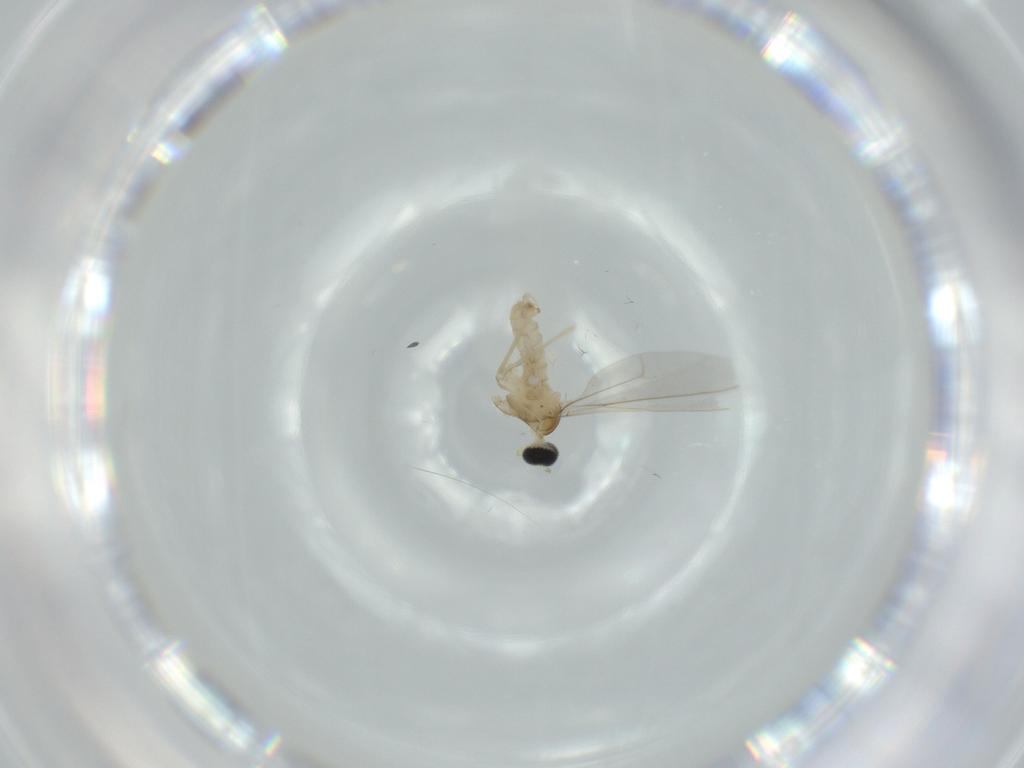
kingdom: Animalia
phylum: Arthropoda
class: Insecta
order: Diptera
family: Cecidomyiidae
